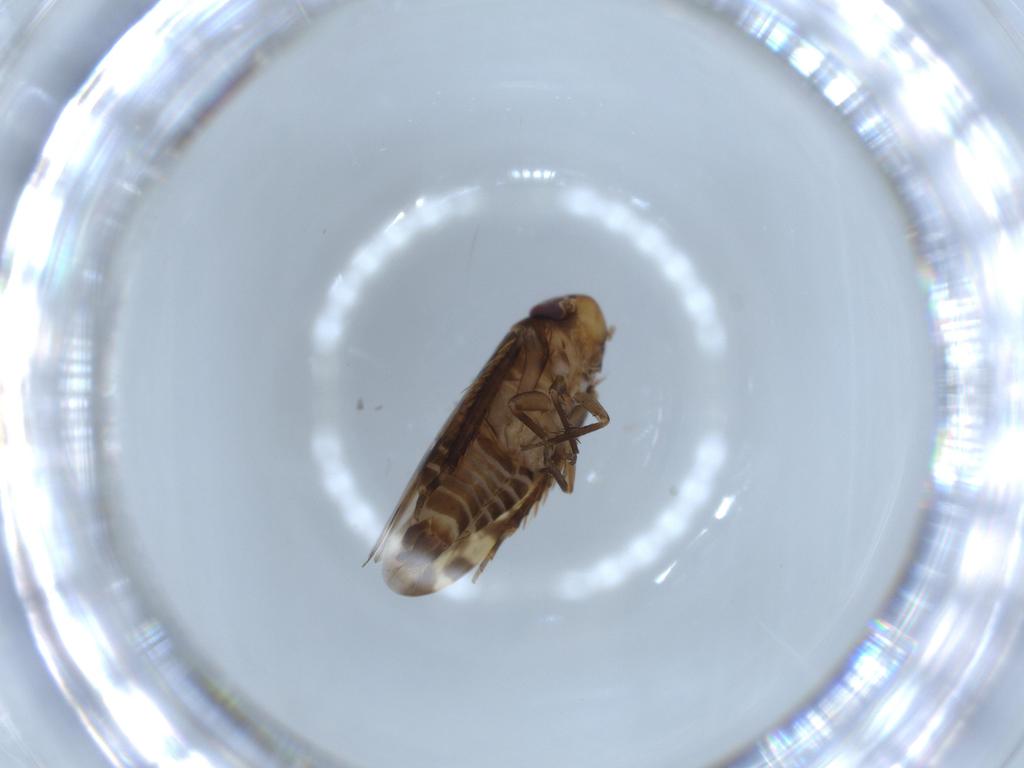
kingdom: Animalia
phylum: Arthropoda
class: Insecta
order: Hemiptera
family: Cicadellidae
